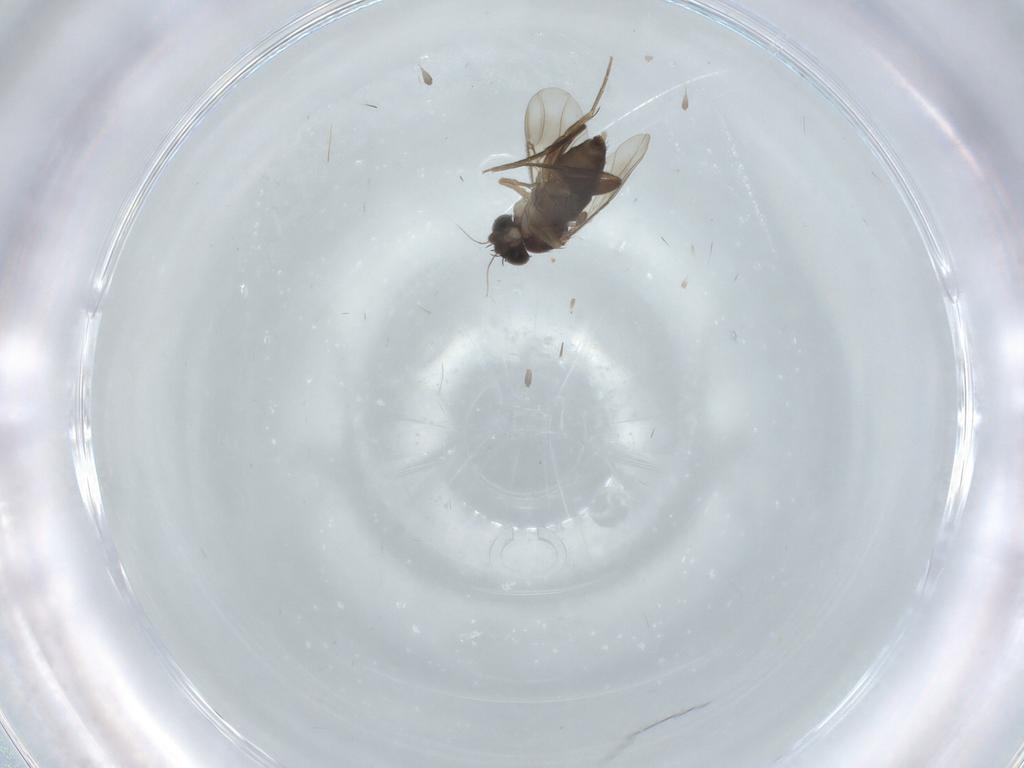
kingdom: Animalia
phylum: Arthropoda
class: Insecta
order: Diptera
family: Phoridae
